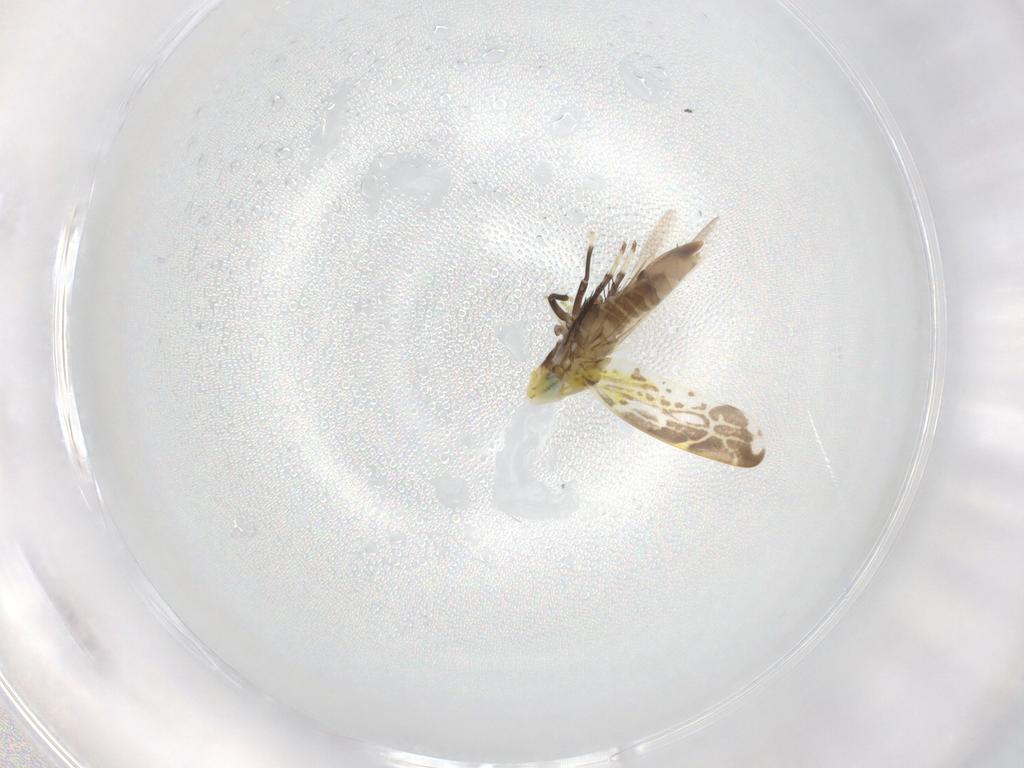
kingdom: Animalia
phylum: Arthropoda
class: Insecta
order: Hemiptera
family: Cicadellidae
